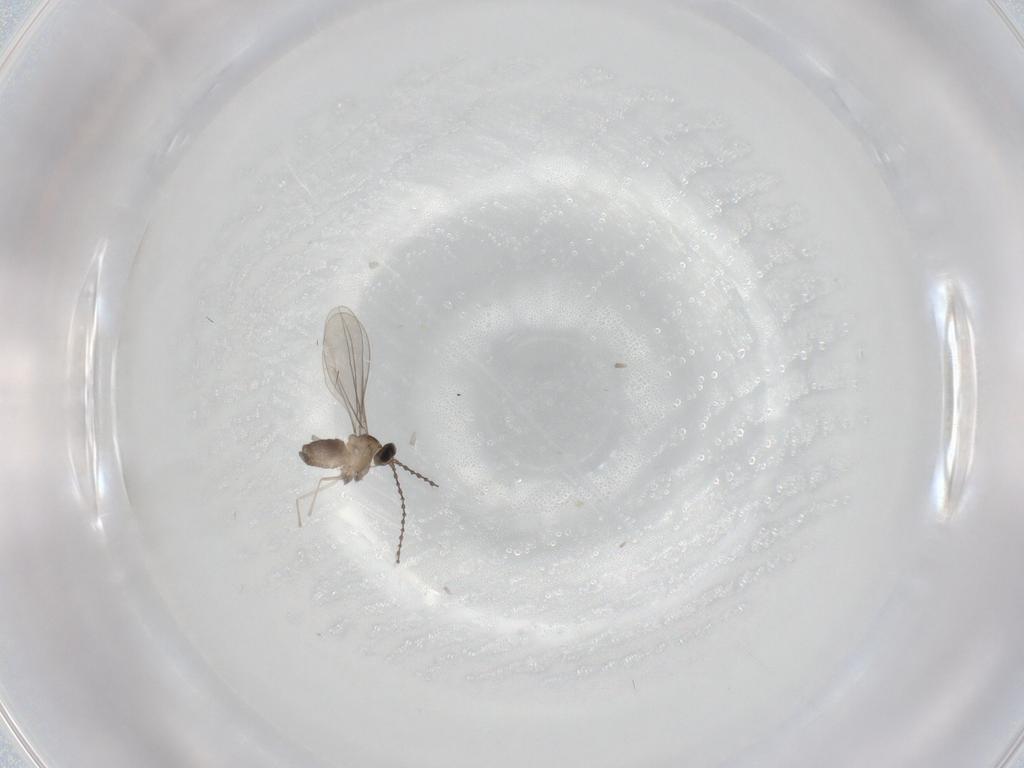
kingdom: Animalia
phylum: Arthropoda
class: Insecta
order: Diptera
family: Cecidomyiidae
